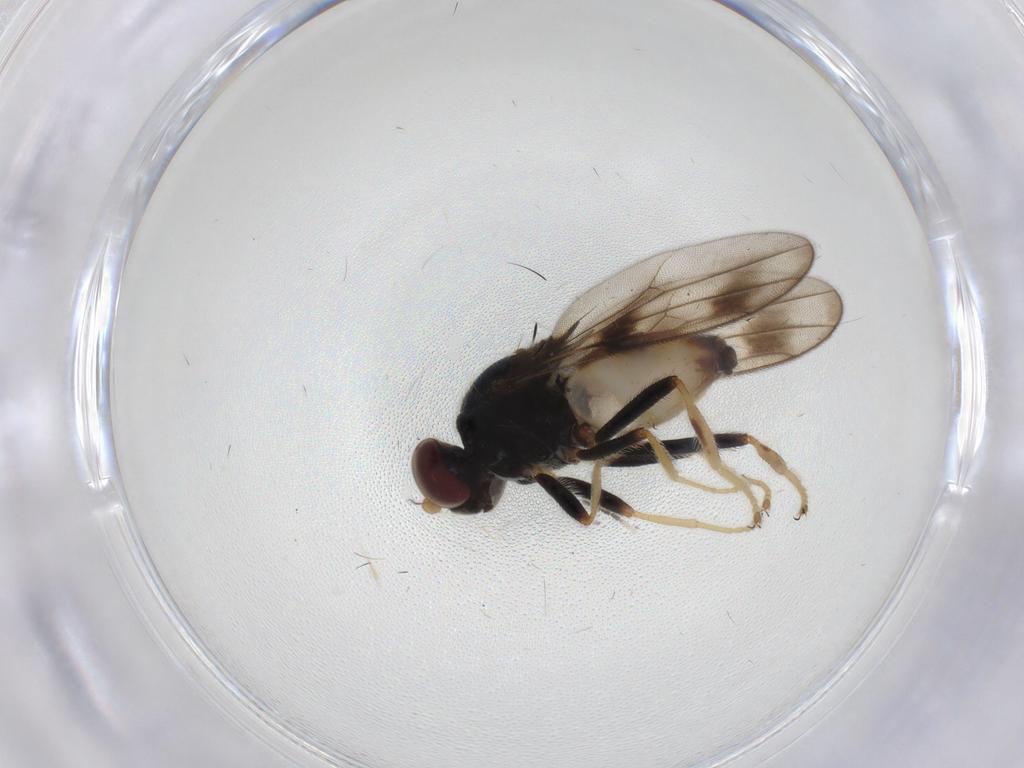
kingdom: Animalia
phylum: Arthropoda
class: Insecta
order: Diptera
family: Chloropidae
